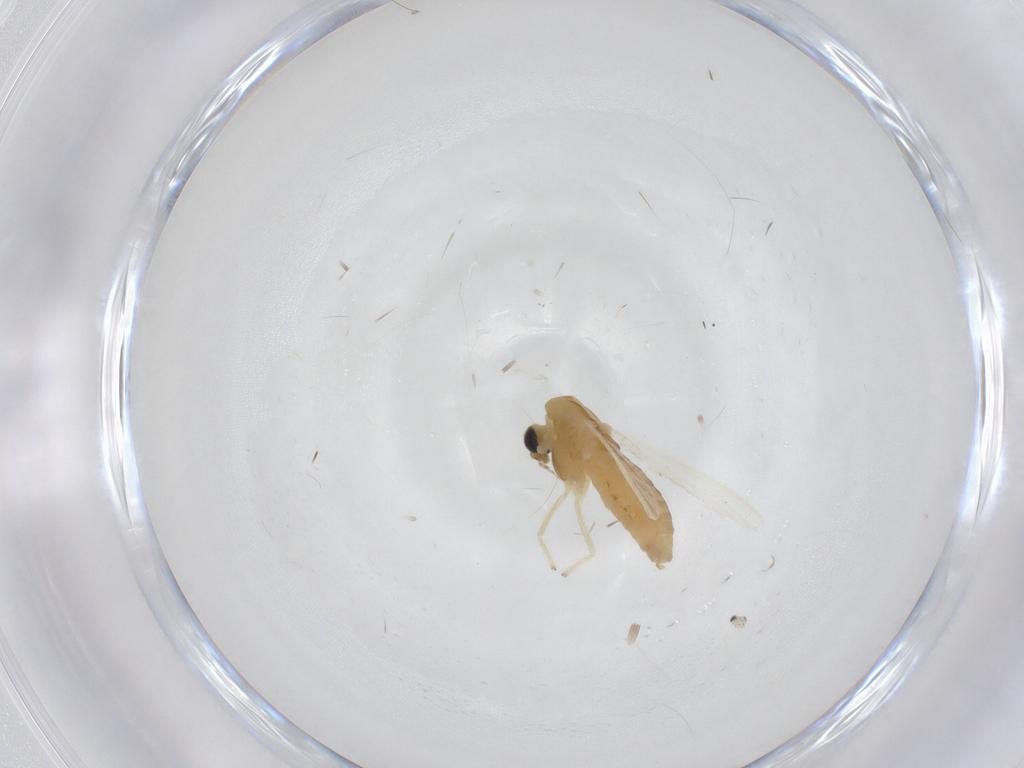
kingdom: Animalia
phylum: Arthropoda
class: Insecta
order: Diptera
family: Chironomidae
